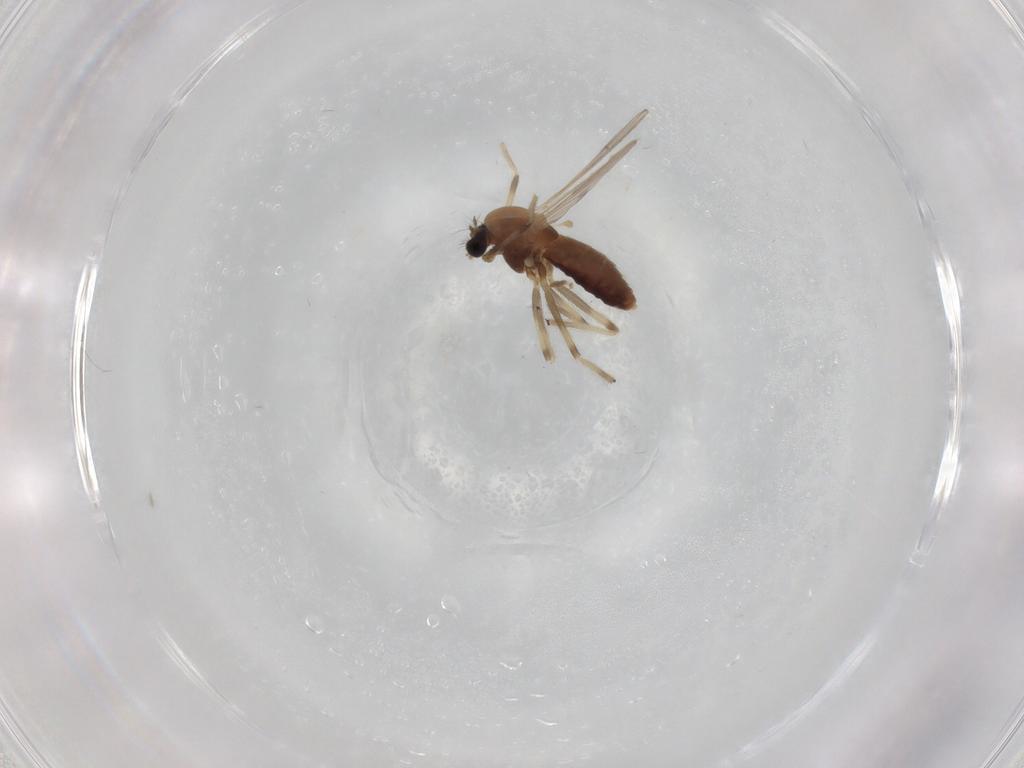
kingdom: Animalia
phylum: Arthropoda
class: Insecta
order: Diptera
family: Chironomidae
